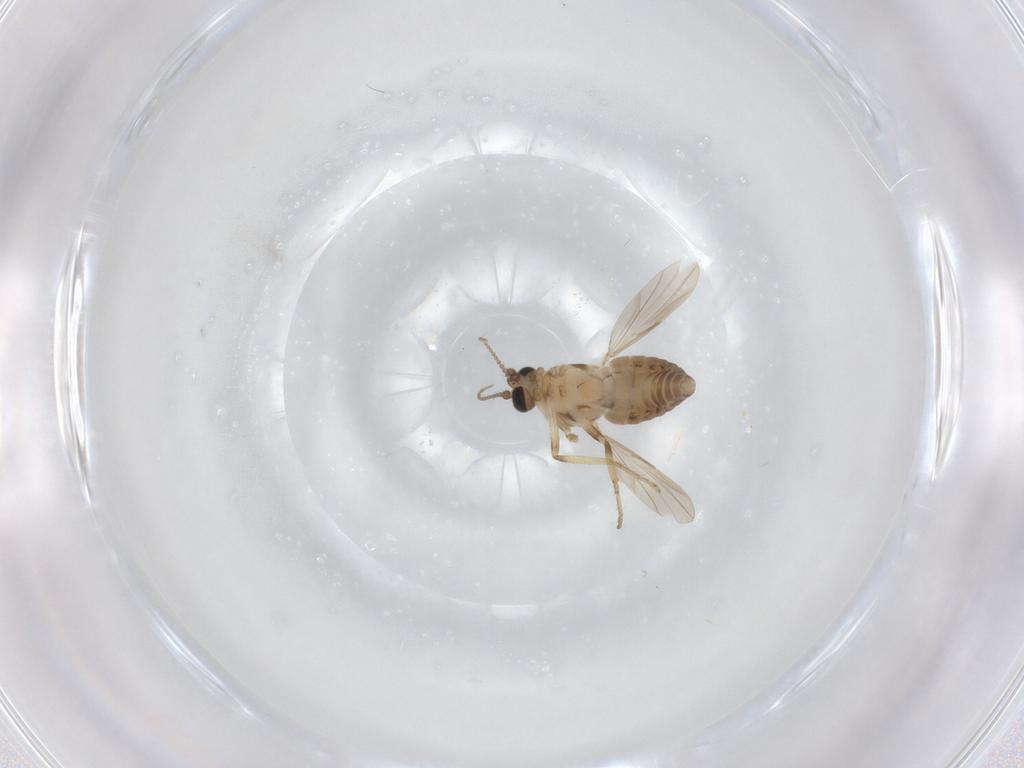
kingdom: Animalia
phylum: Arthropoda
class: Insecta
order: Diptera
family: Ceratopogonidae
